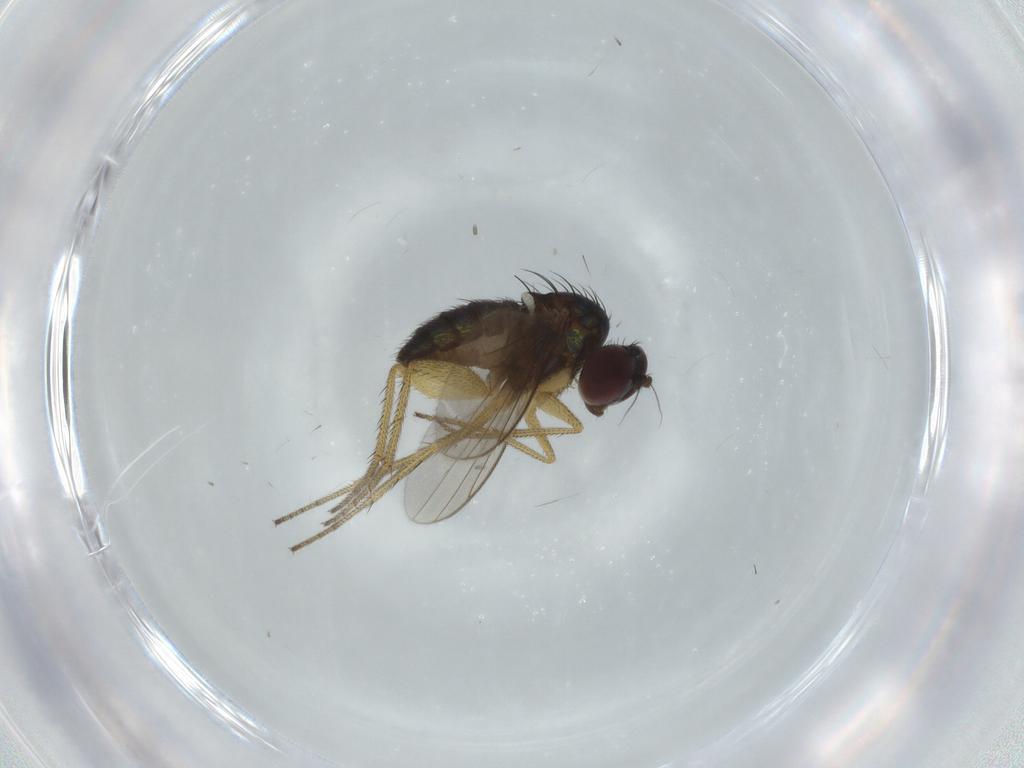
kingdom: Animalia
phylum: Arthropoda
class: Insecta
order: Diptera
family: Dolichopodidae
